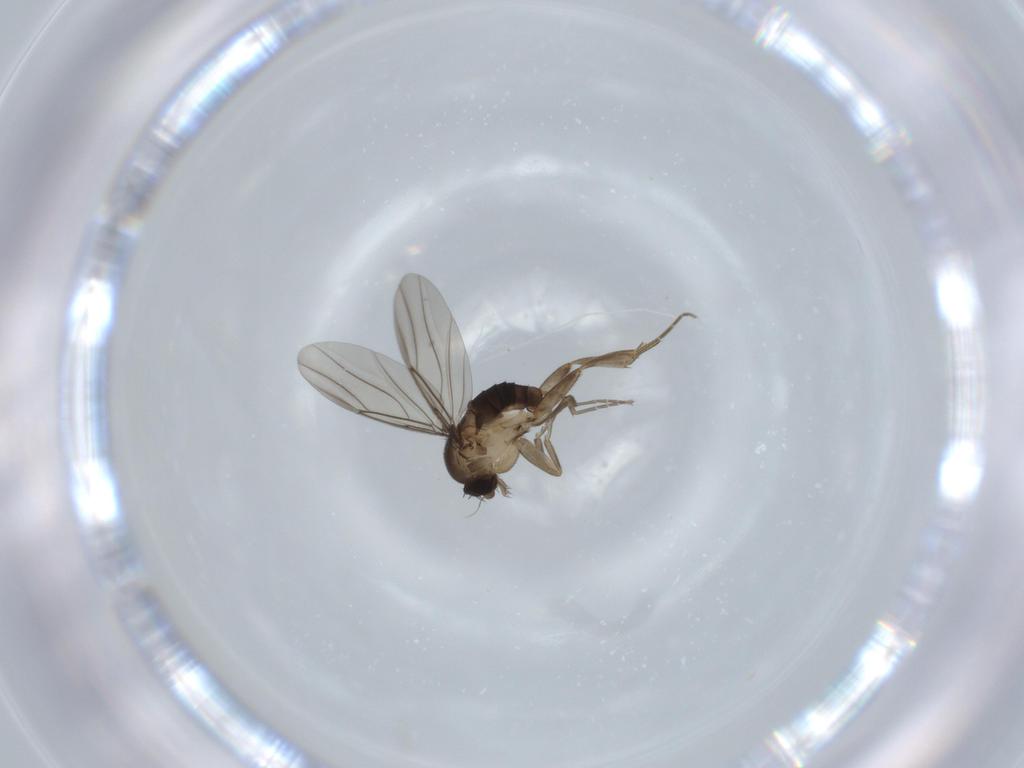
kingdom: Animalia
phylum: Arthropoda
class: Insecta
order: Diptera
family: Phoridae
